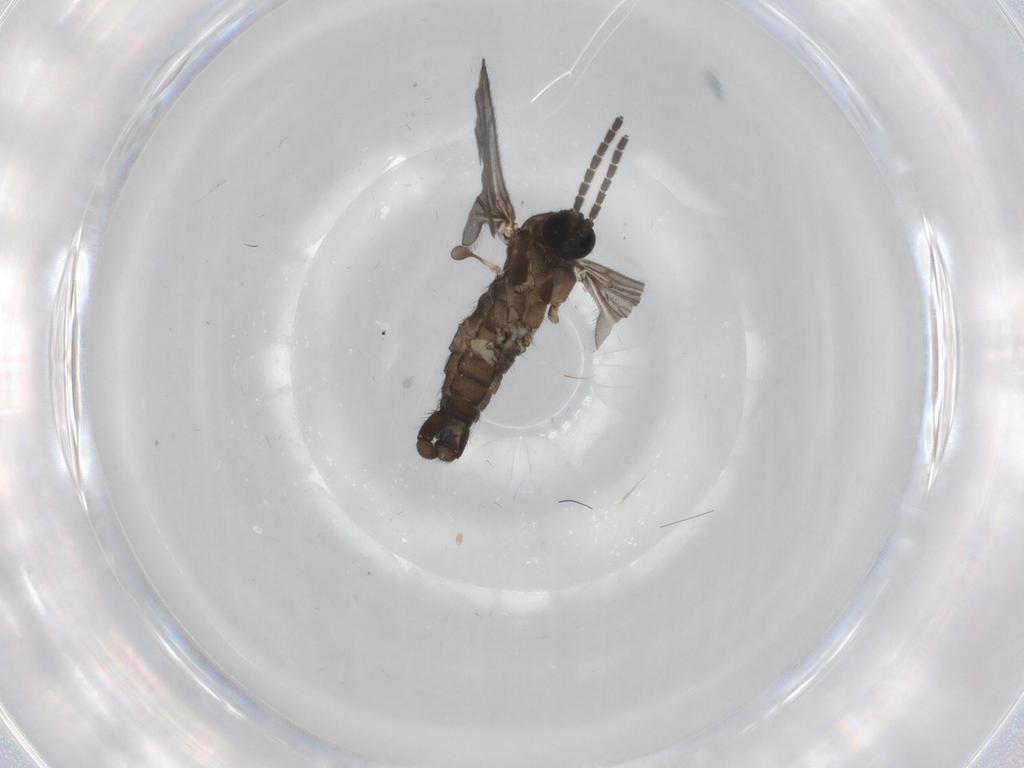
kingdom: Animalia
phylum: Arthropoda
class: Insecta
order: Diptera
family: Sciaridae
